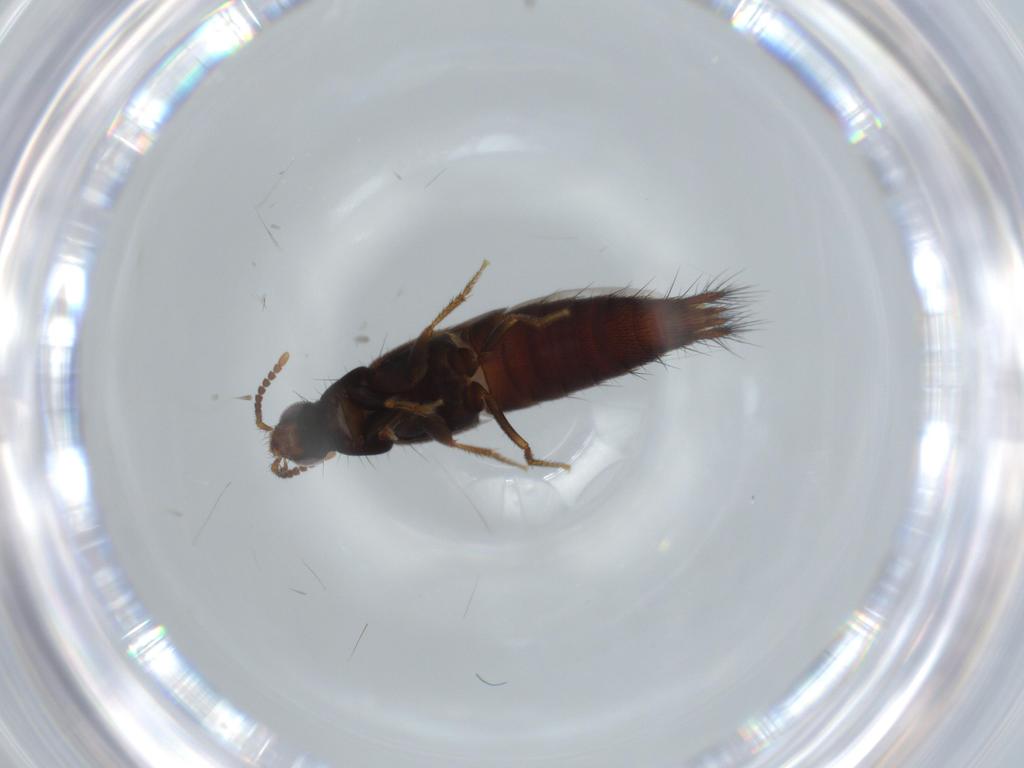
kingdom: Animalia
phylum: Arthropoda
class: Insecta
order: Coleoptera
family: Staphylinidae
